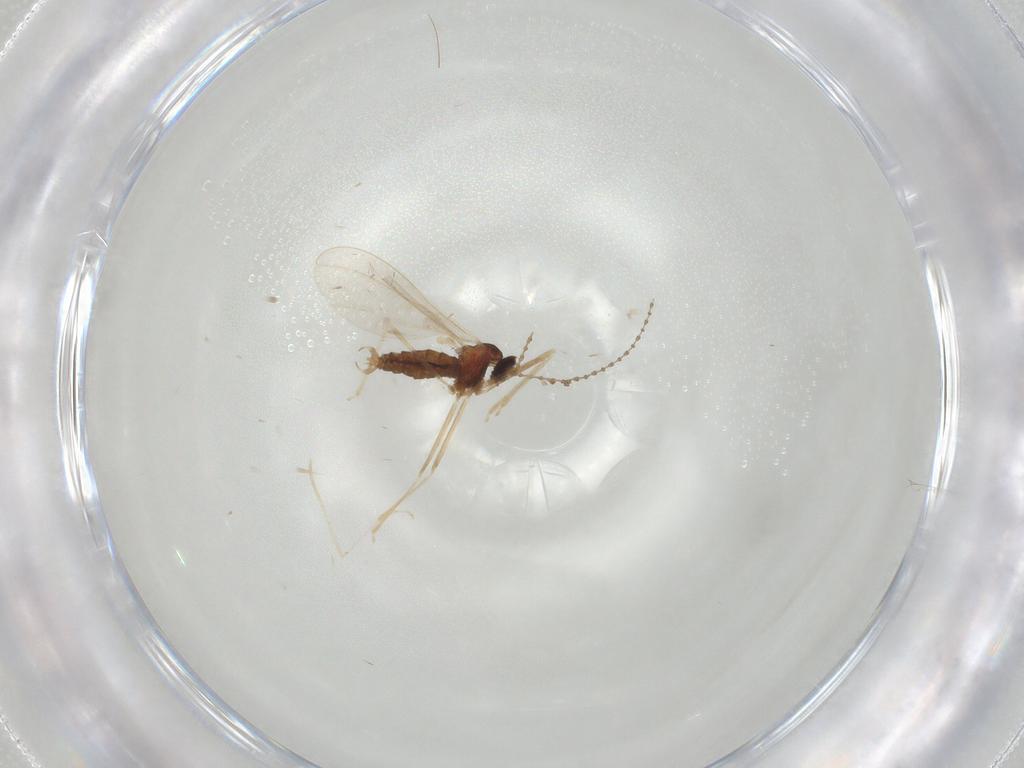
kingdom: Animalia
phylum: Arthropoda
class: Insecta
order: Diptera
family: Cecidomyiidae
